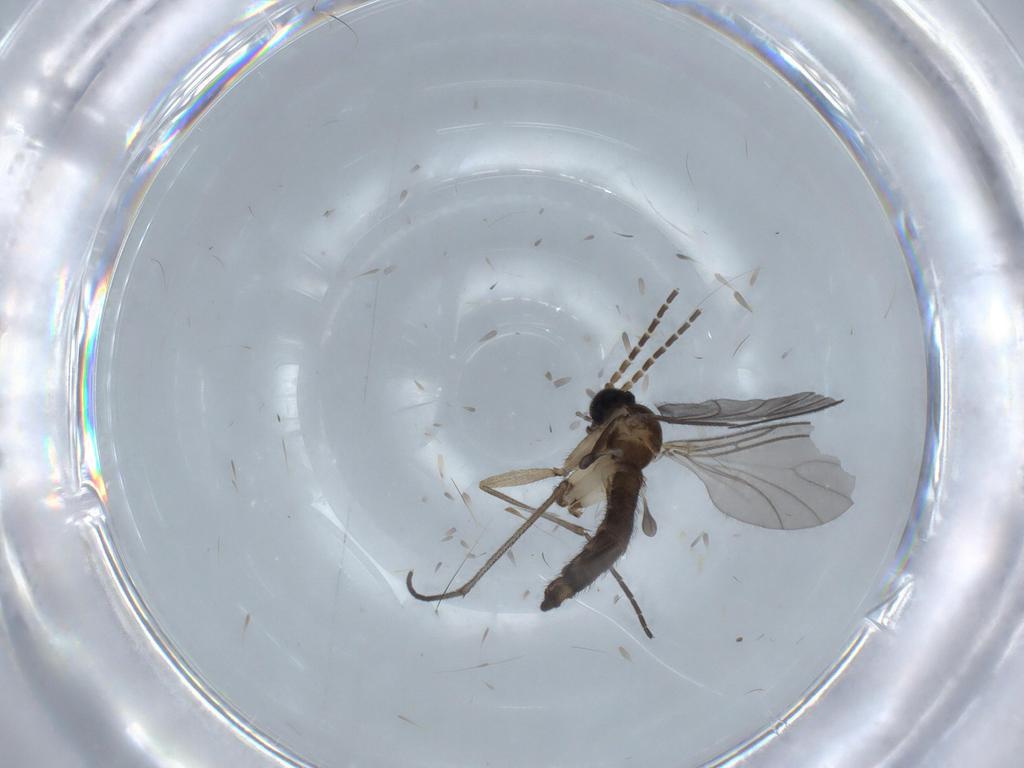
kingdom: Animalia
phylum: Arthropoda
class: Insecta
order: Diptera
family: Sciaridae
